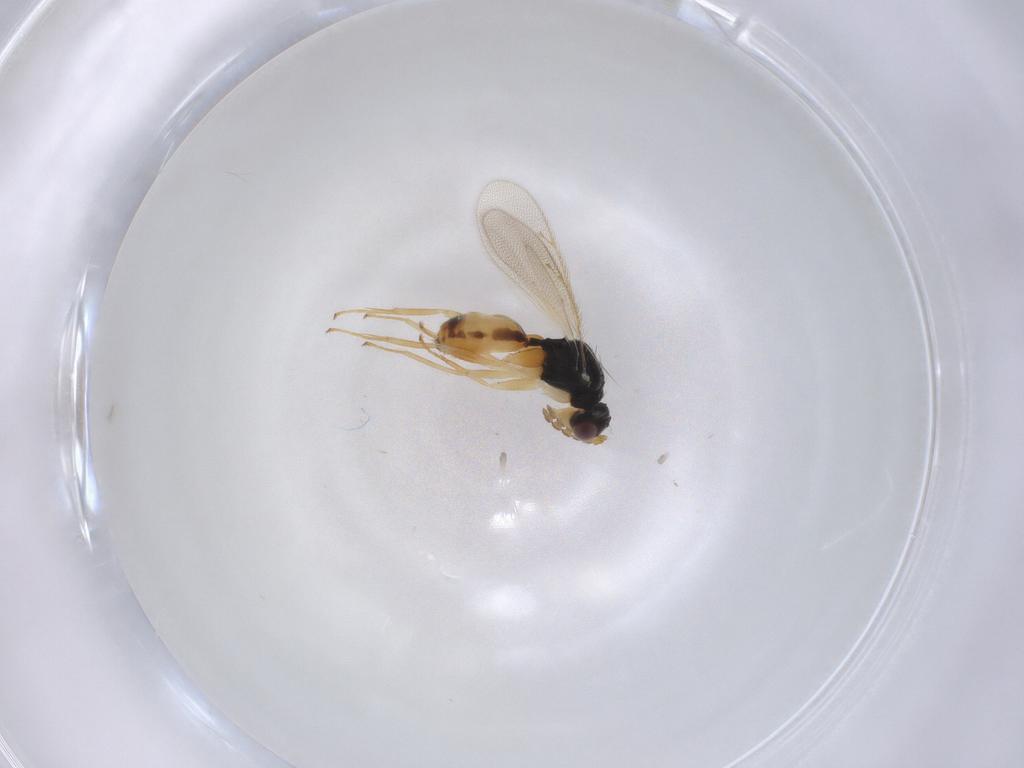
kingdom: Animalia
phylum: Arthropoda
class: Insecta
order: Hymenoptera
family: Eulophidae
